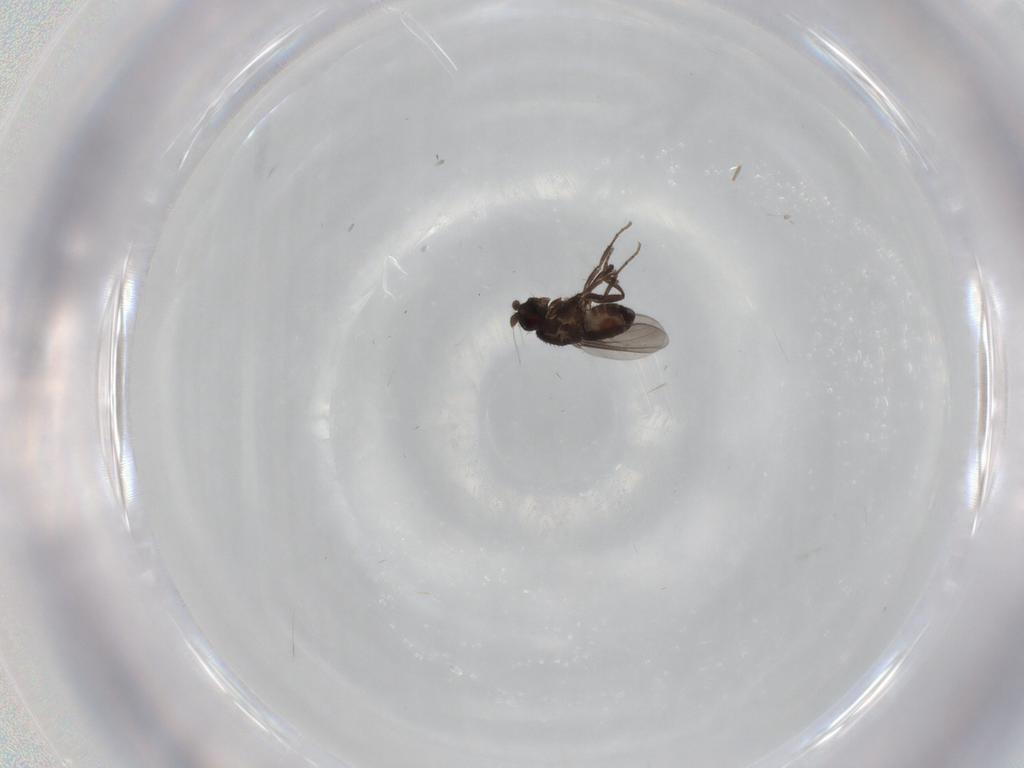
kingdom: Animalia
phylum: Arthropoda
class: Insecta
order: Diptera
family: Sphaeroceridae
